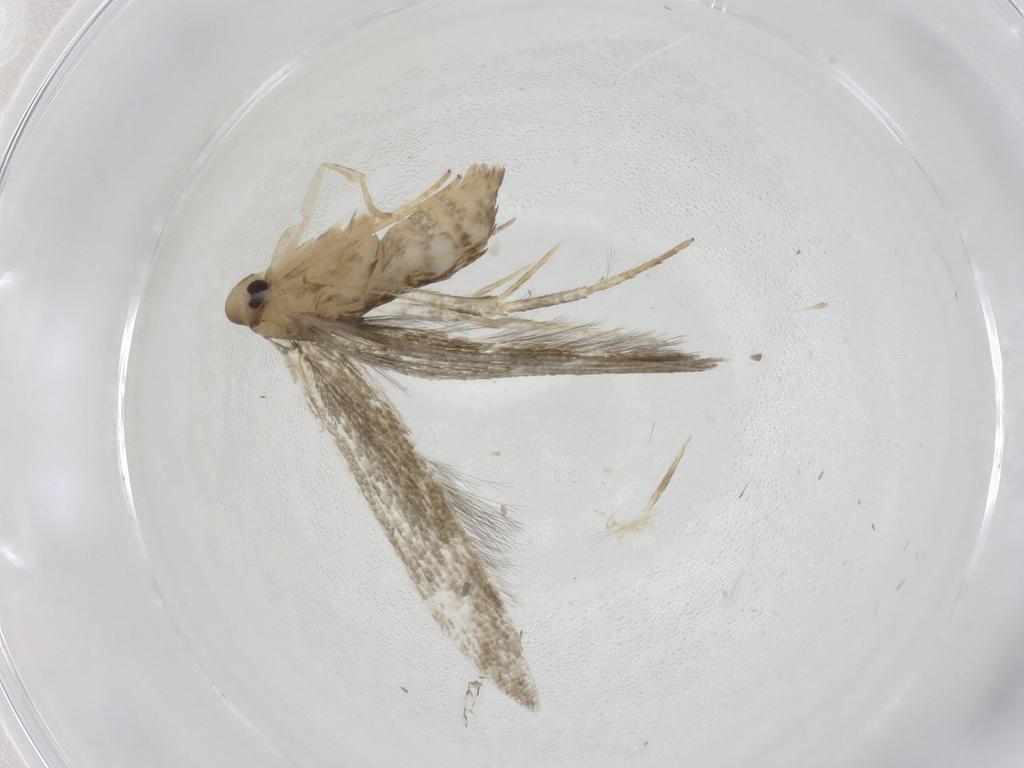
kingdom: Animalia
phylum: Arthropoda
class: Insecta
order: Lepidoptera
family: Stathmopodidae
